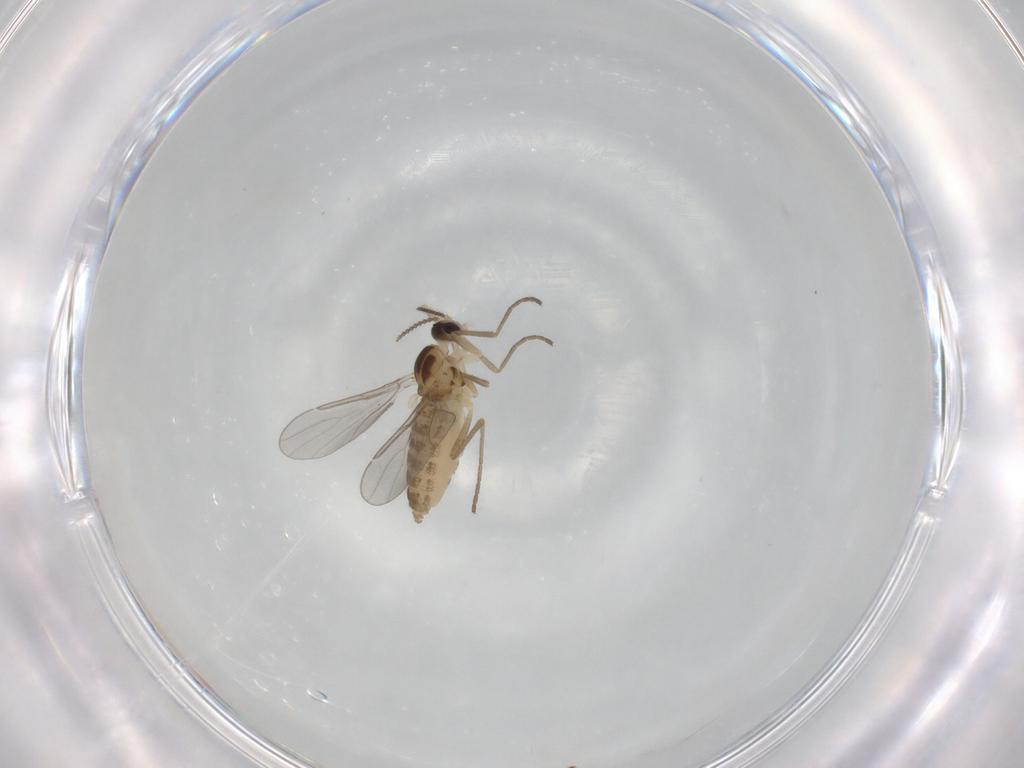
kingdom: Animalia
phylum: Arthropoda
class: Insecta
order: Diptera
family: Cecidomyiidae
